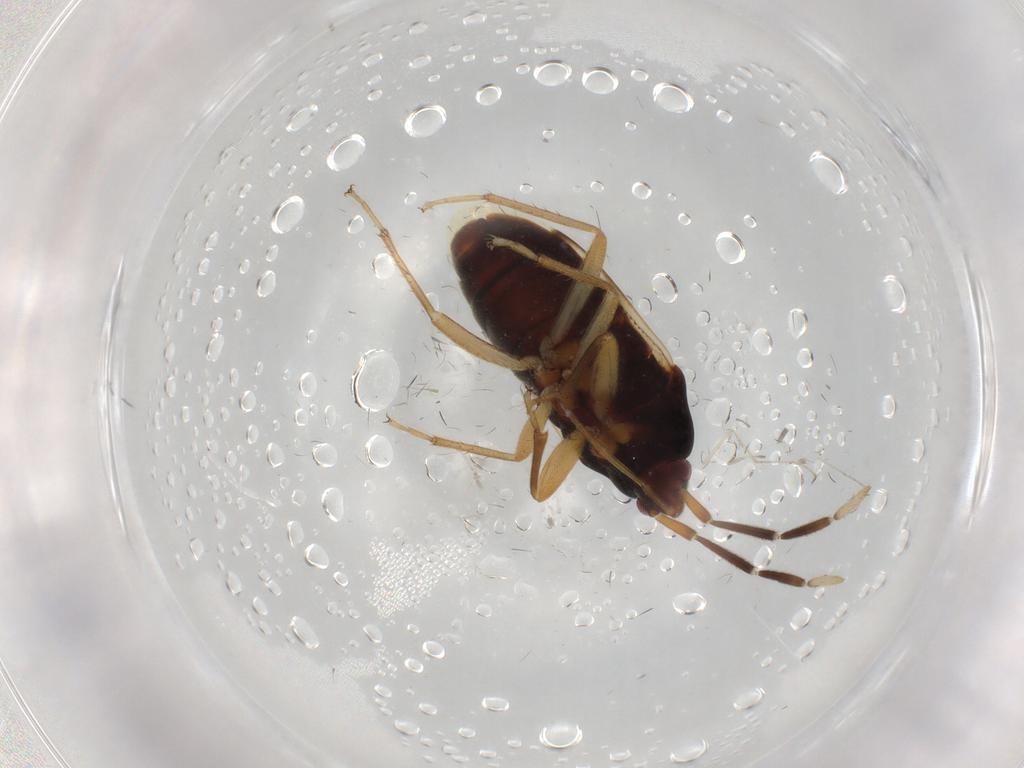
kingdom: Animalia
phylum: Arthropoda
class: Insecta
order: Hemiptera
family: Rhyparochromidae
